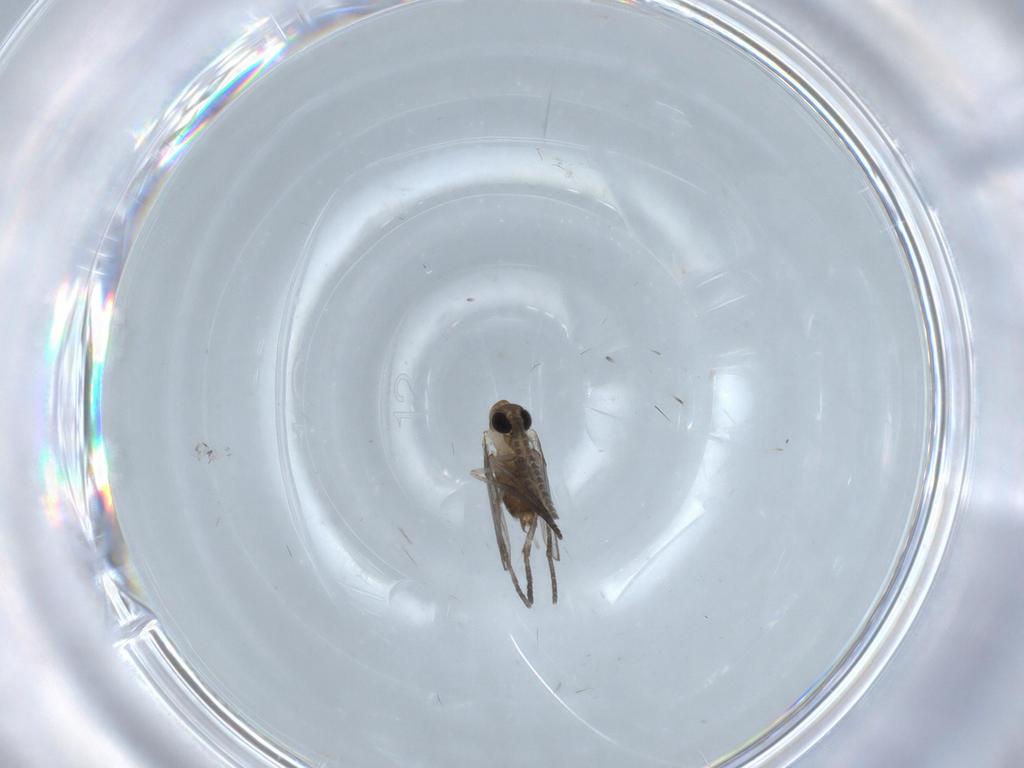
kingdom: Animalia
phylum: Arthropoda
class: Insecta
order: Diptera
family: Psychodidae
